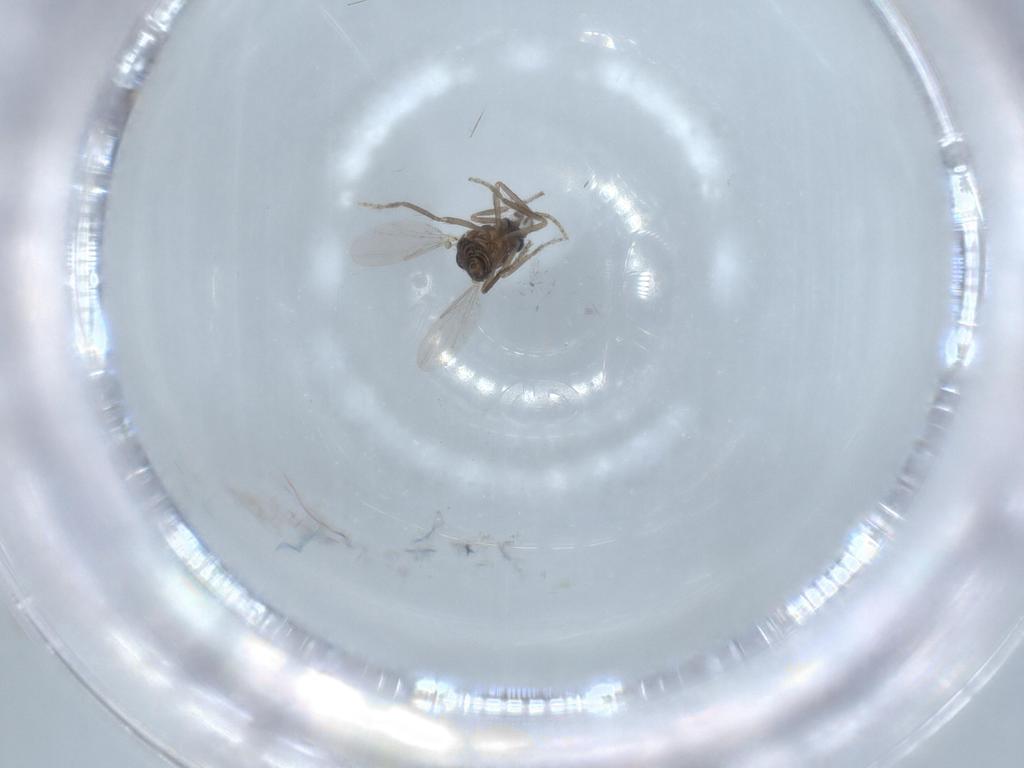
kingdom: Animalia
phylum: Arthropoda
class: Insecta
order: Diptera
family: Ceratopogonidae
